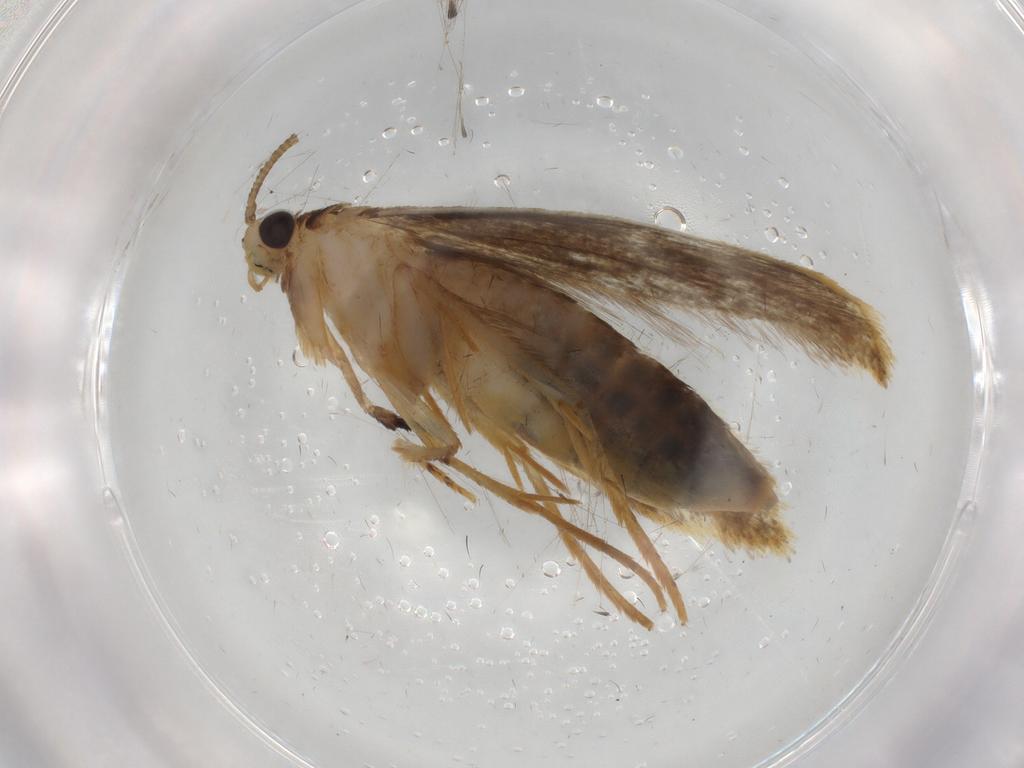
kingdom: Animalia
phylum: Arthropoda
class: Insecta
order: Lepidoptera
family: Tineidae
